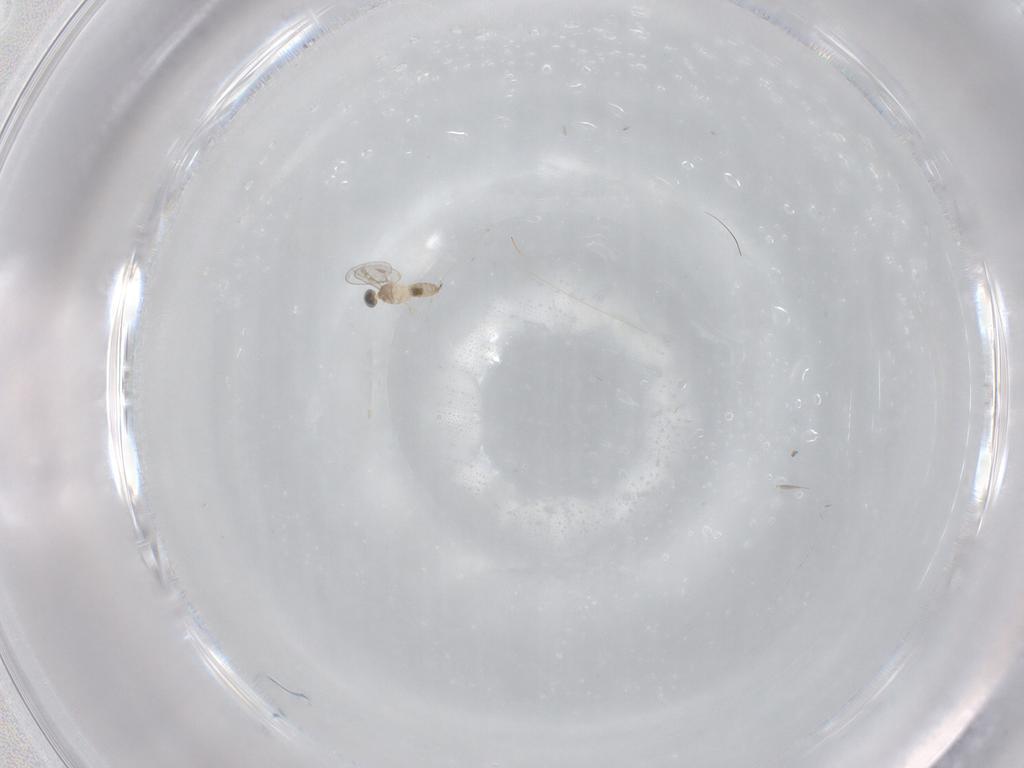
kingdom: Animalia
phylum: Arthropoda
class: Insecta
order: Diptera
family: Cecidomyiidae
